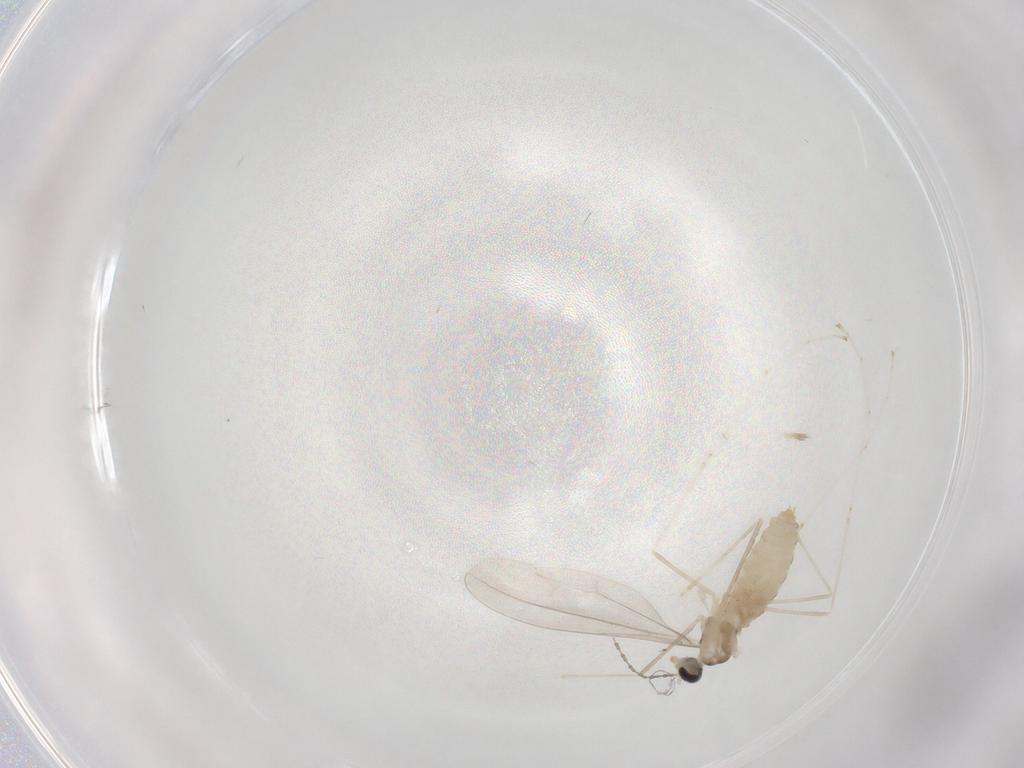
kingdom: Animalia
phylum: Arthropoda
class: Insecta
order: Diptera
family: Cecidomyiidae
